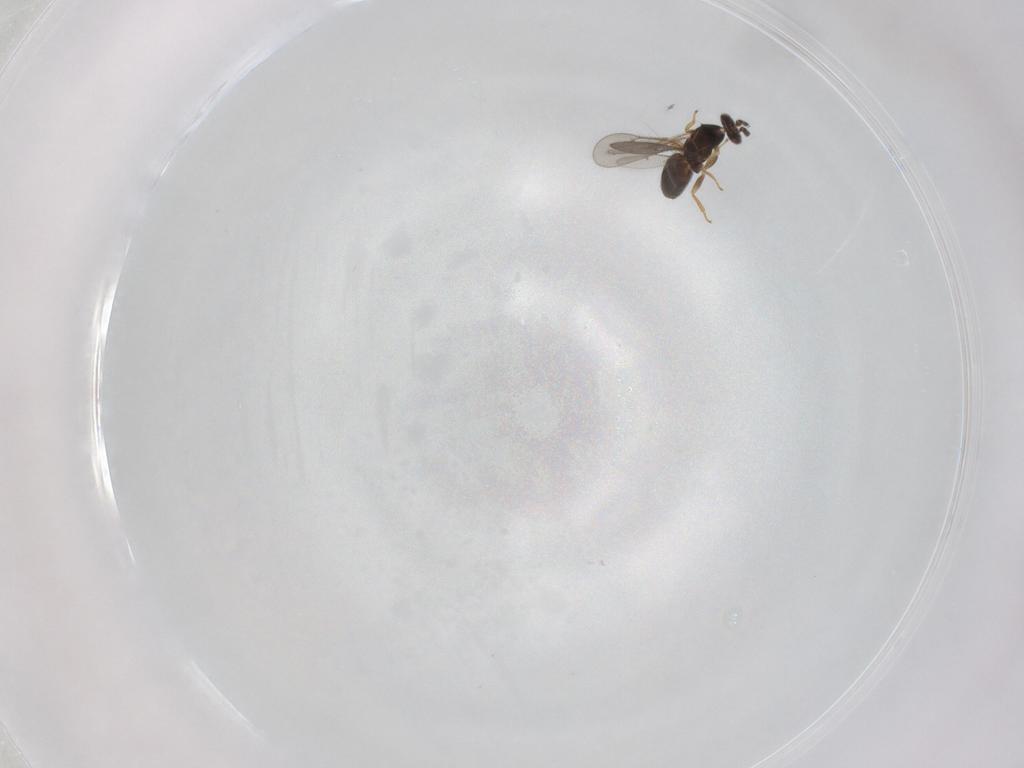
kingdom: Animalia
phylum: Arthropoda
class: Insecta
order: Hymenoptera
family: Eulophidae
